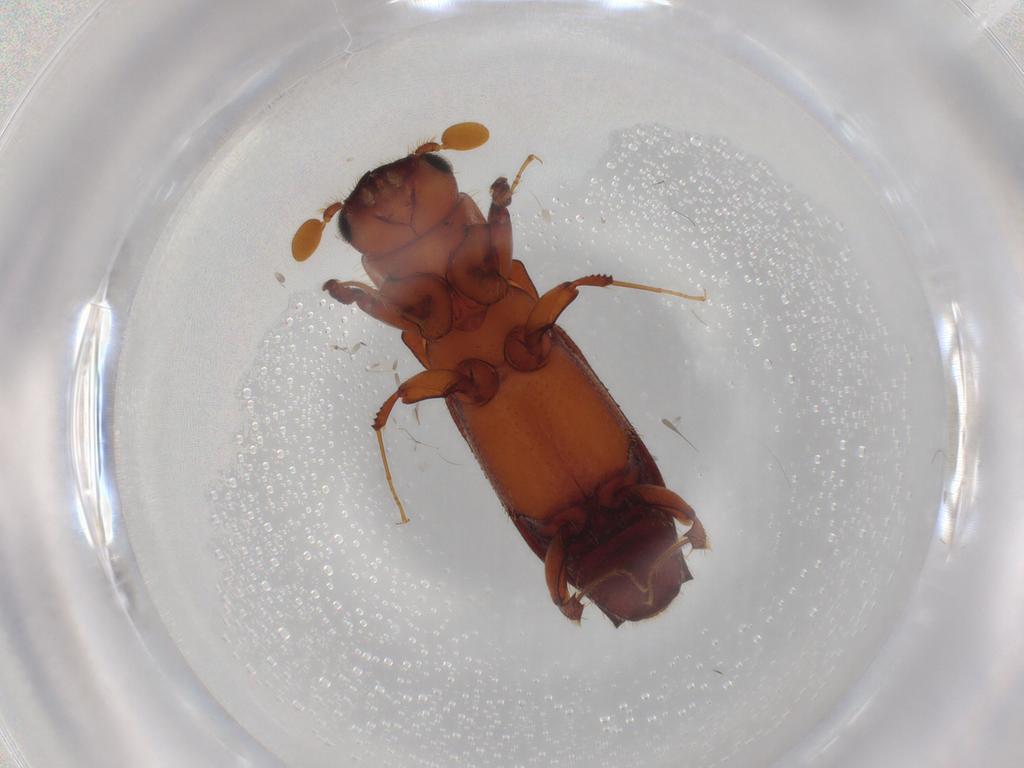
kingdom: Animalia
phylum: Arthropoda
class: Insecta
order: Coleoptera
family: Curculionidae
